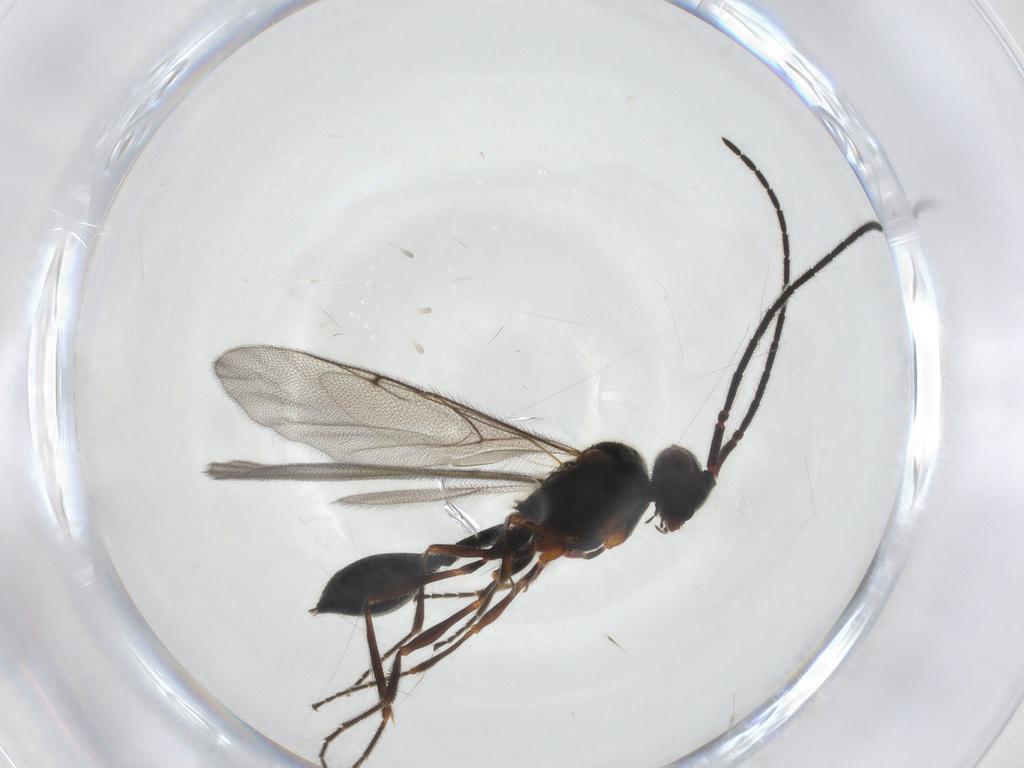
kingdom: Animalia
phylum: Arthropoda
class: Insecta
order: Hymenoptera
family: Diapriidae
